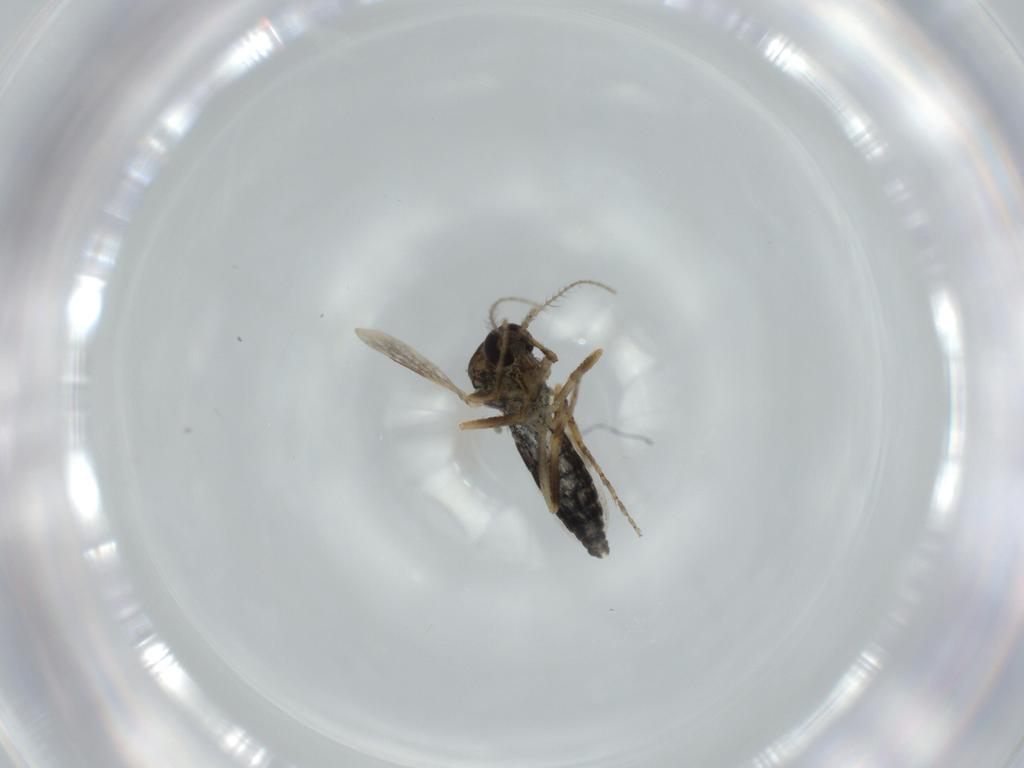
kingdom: Animalia
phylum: Arthropoda
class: Insecta
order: Diptera
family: Sciaridae
